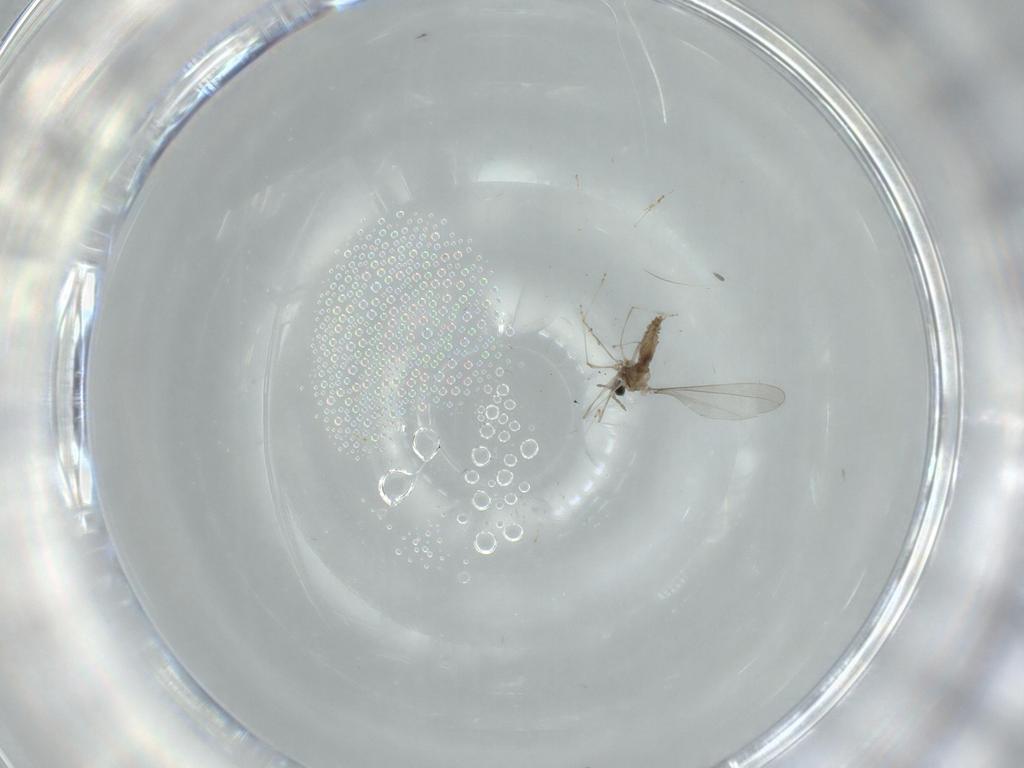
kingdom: Animalia
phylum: Arthropoda
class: Insecta
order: Diptera
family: Cecidomyiidae
